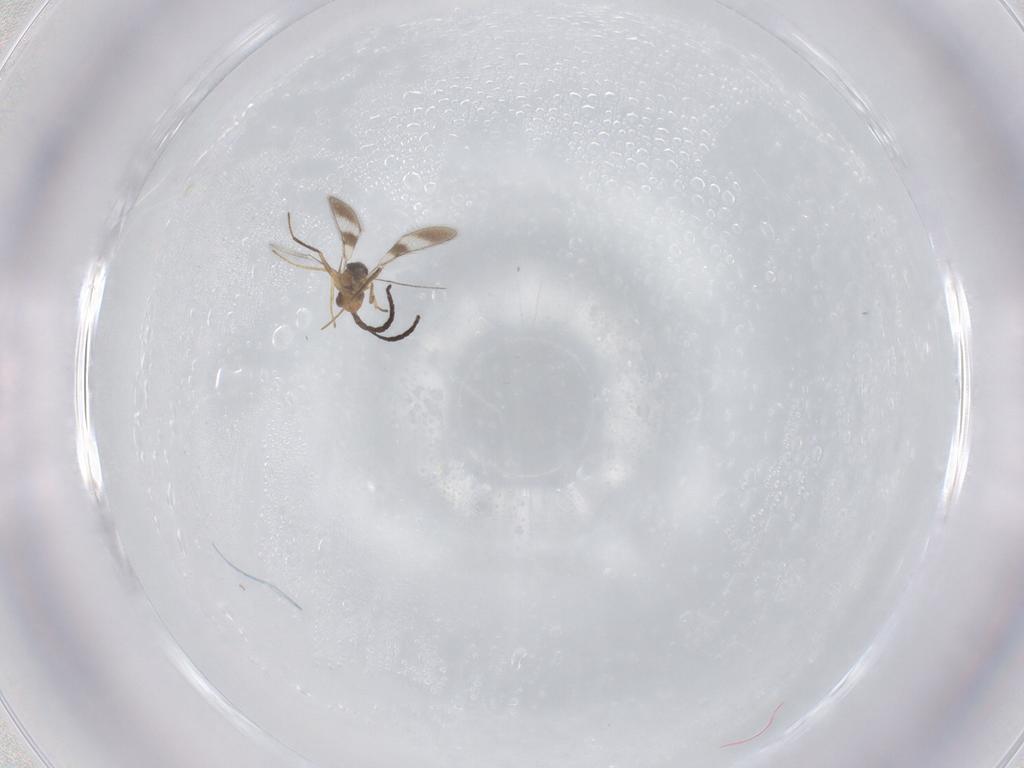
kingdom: Animalia
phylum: Arthropoda
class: Insecta
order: Hymenoptera
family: Mymaridae
